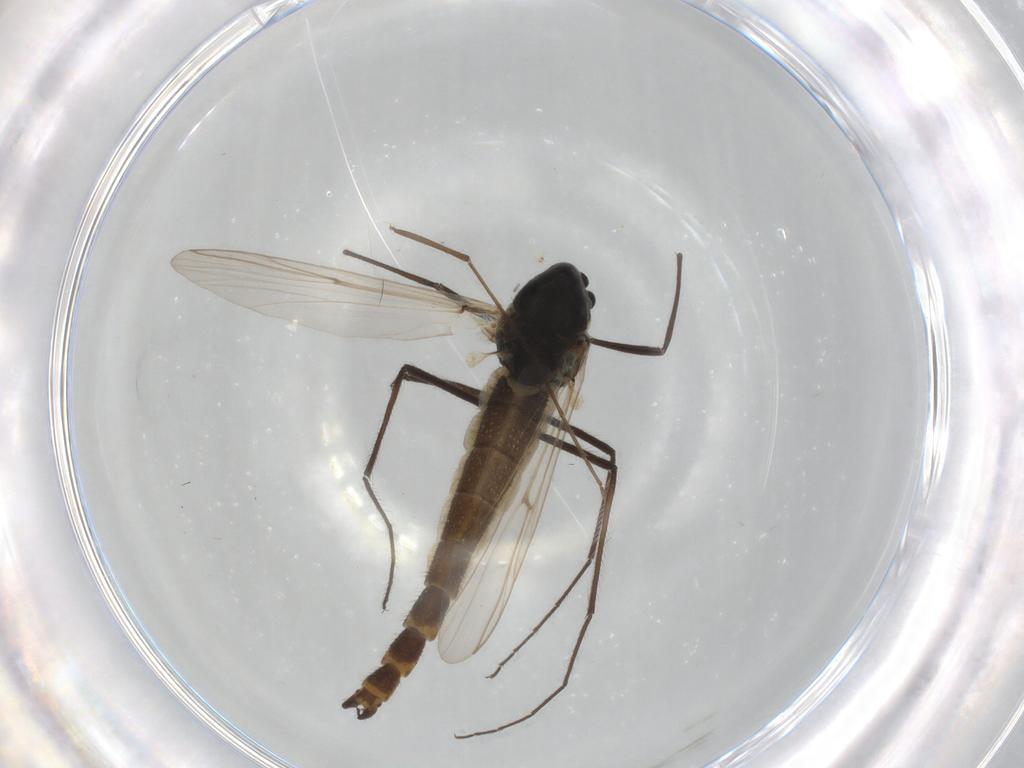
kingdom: Animalia
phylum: Arthropoda
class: Insecta
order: Diptera
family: Chironomidae
